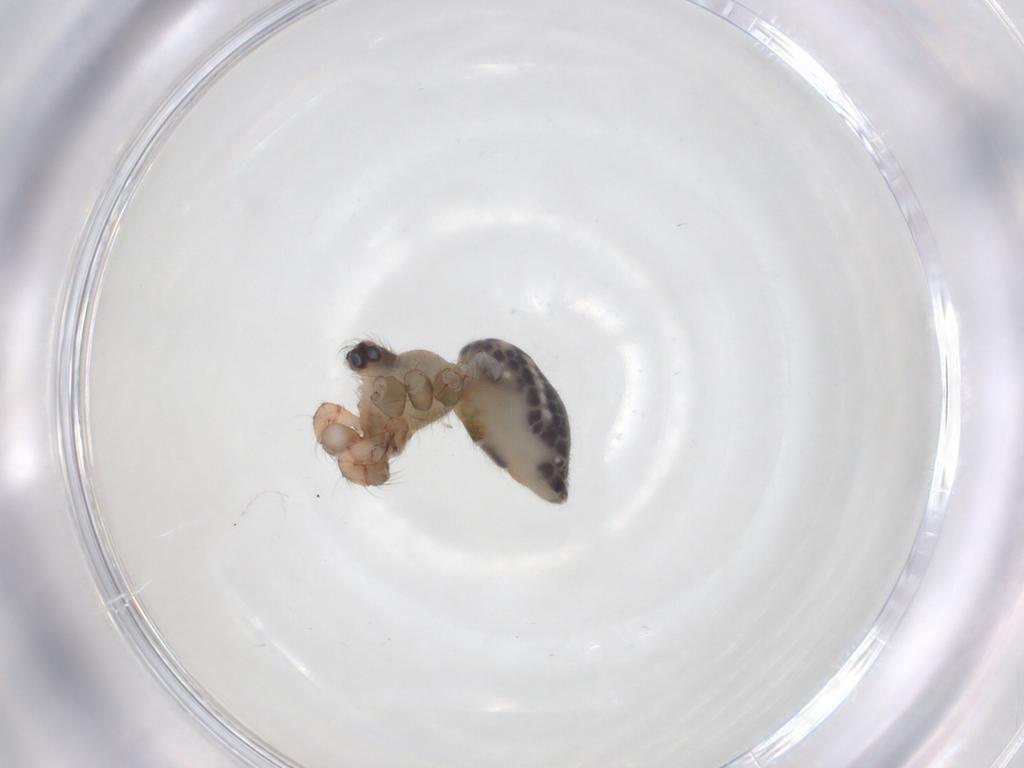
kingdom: Animalia
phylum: Arthropoda
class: Arachnida
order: Araneae
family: Pholcidae
